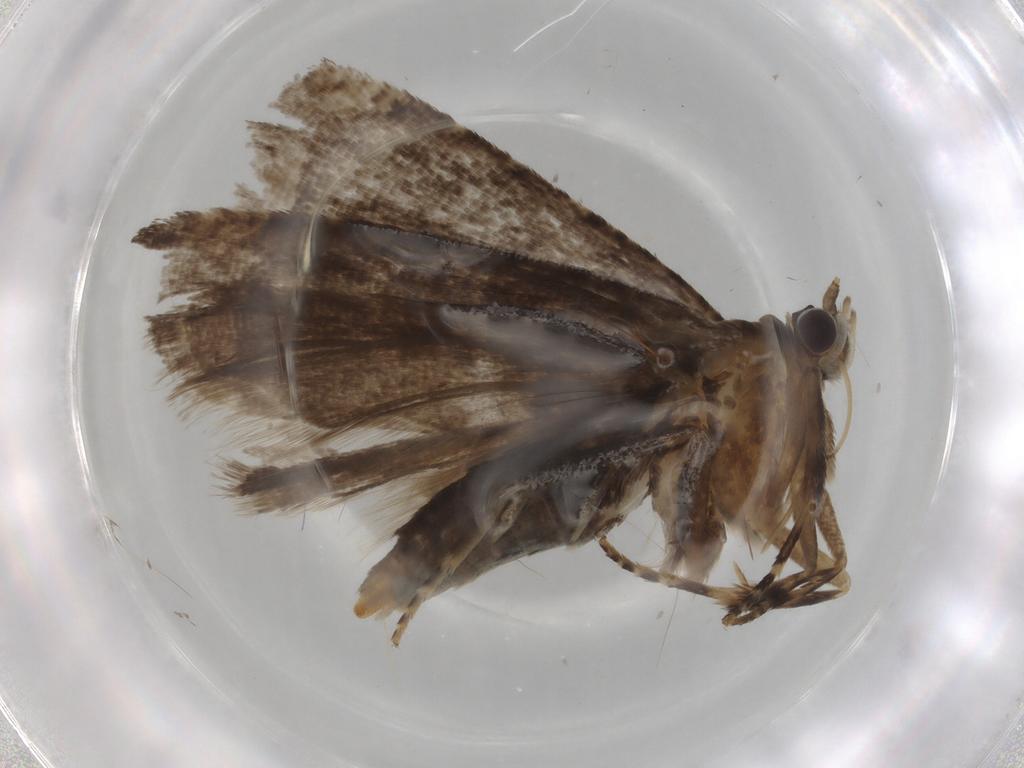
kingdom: Animalia
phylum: Arthropoda
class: Insecta
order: Lepidoptera
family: Tortricidae
